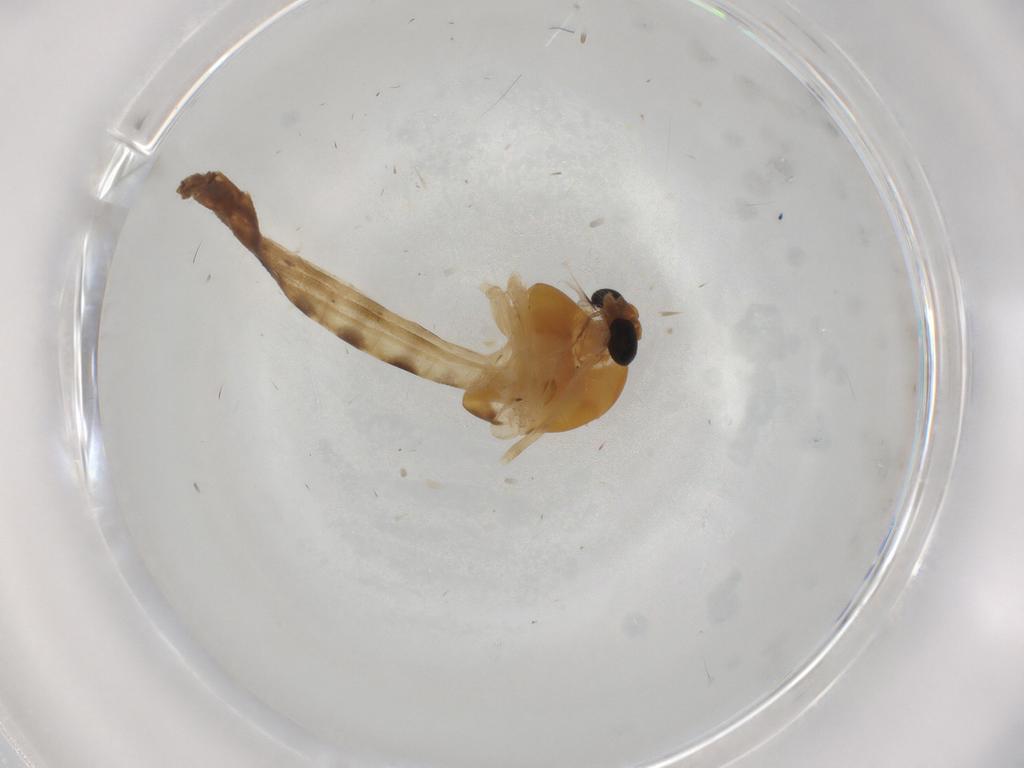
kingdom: Animalia
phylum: Arthropoda
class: Insecta
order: Diptera
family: Chironomidae
